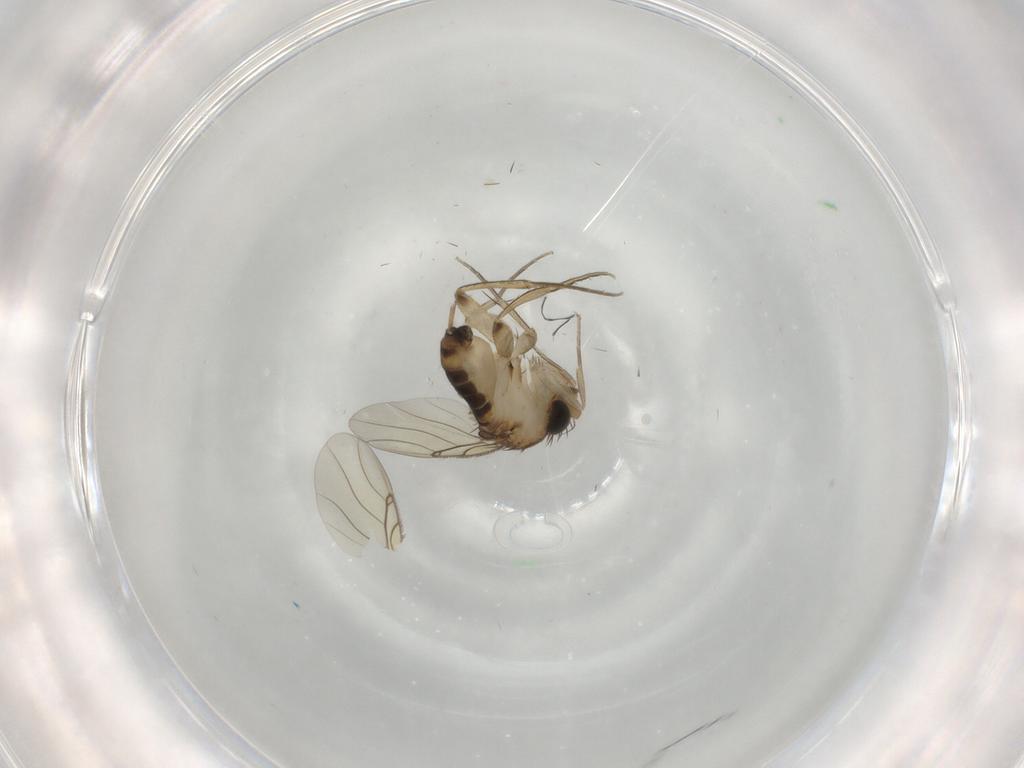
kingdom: Animalia
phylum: Arthropoda
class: Insecta
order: Diptera
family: Phoridae
